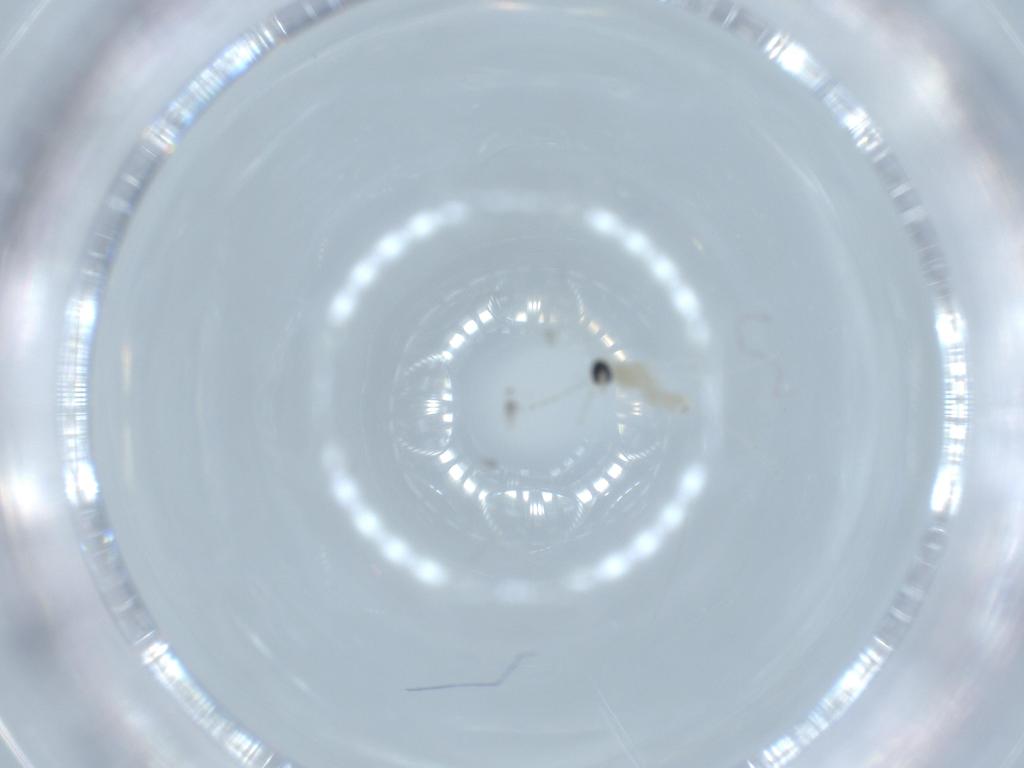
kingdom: Animalia
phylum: Arthropoda
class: Insecta
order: Diptera
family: Cecidomyiidae
